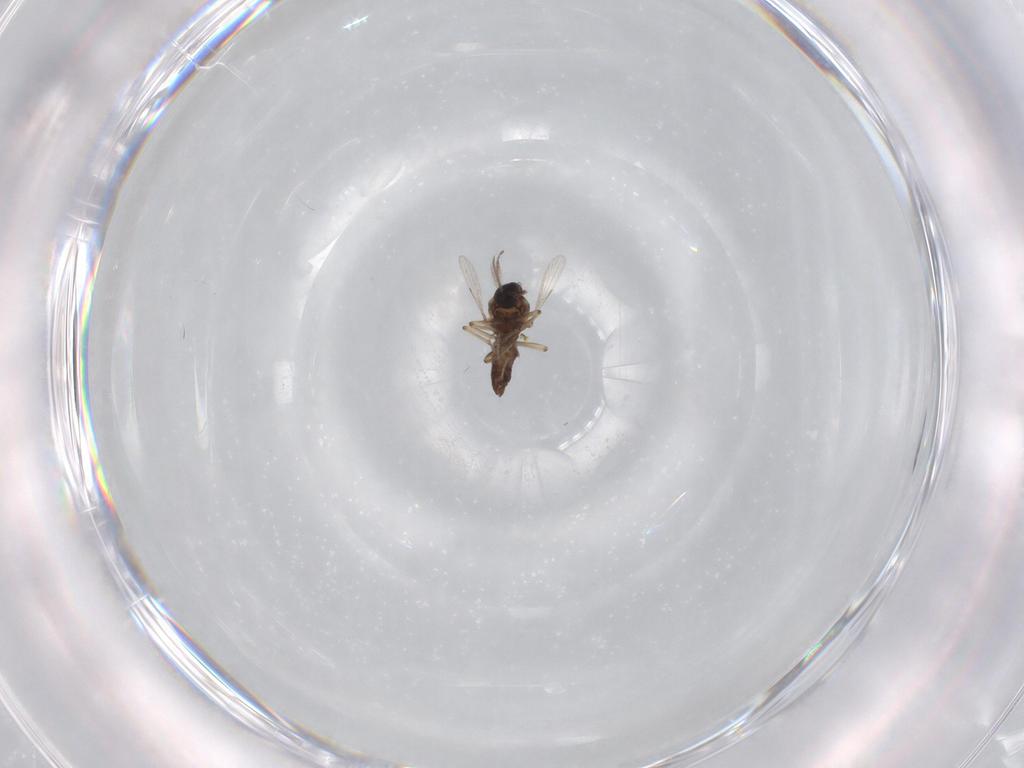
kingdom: Animalia
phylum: Arthropoda
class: Insecta
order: Diptera
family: Ceratopogonidae
